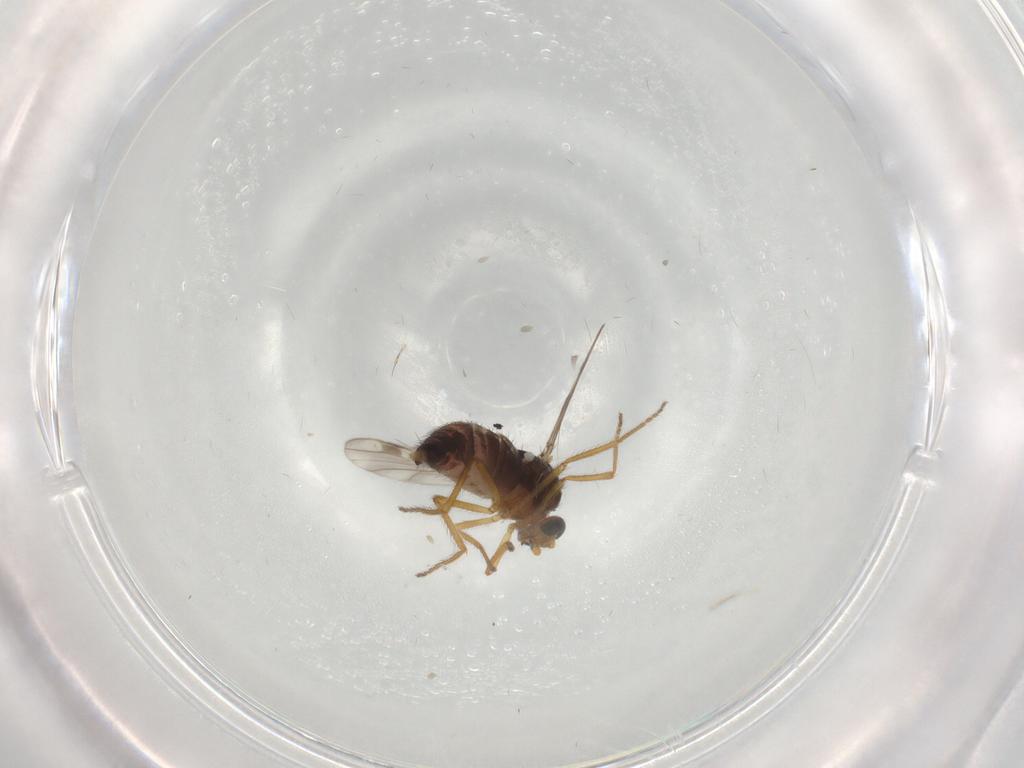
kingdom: Animalia
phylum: Arthropoda
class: Insecta
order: Diptera
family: Ceratopogonidae
